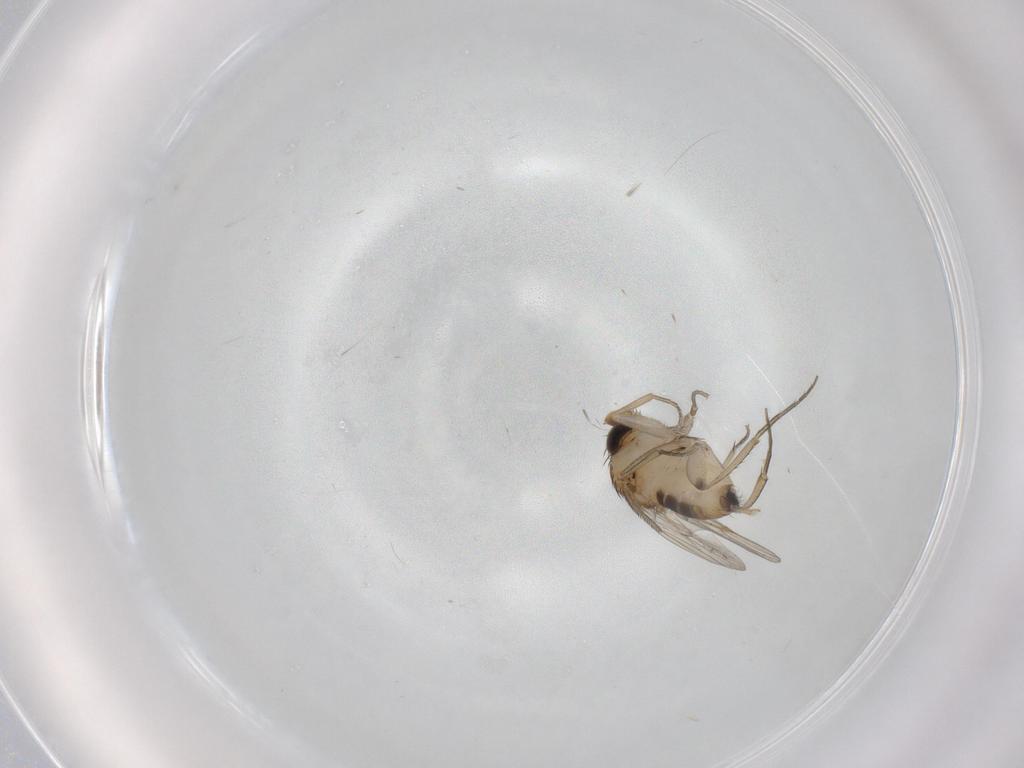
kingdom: Animalia
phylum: Arthropoda
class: Insecta
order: Diptera
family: Phoridae
